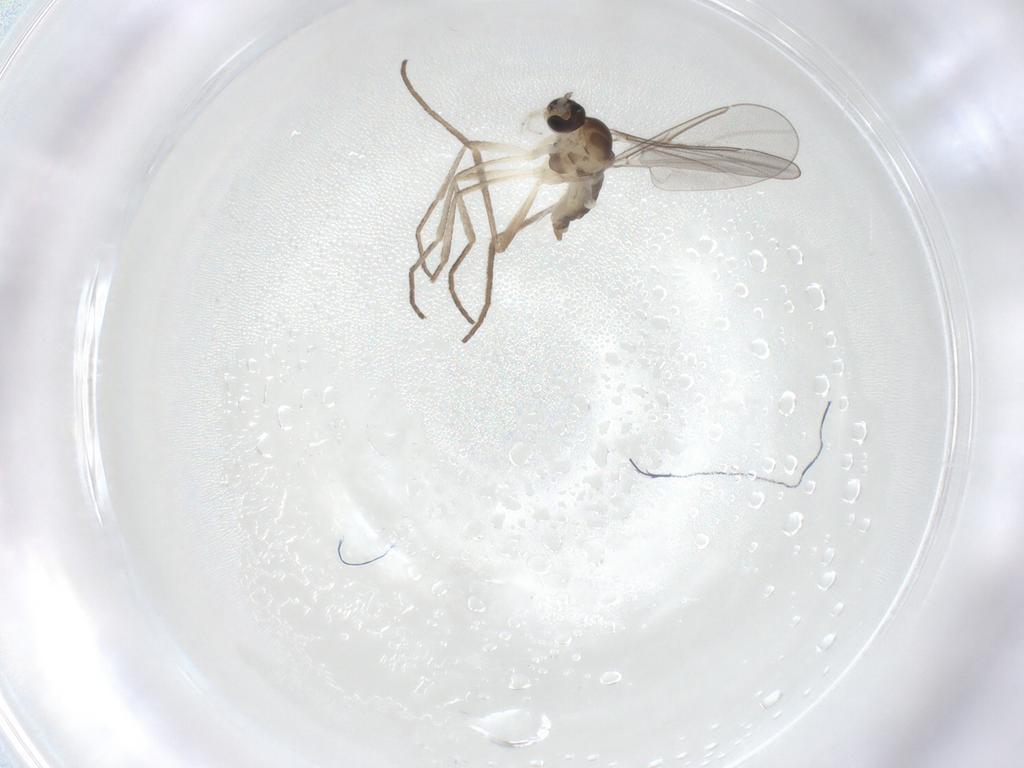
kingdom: Animalia
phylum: Arthropoda
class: Insecta
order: Diptera
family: Cecidomyiidae
